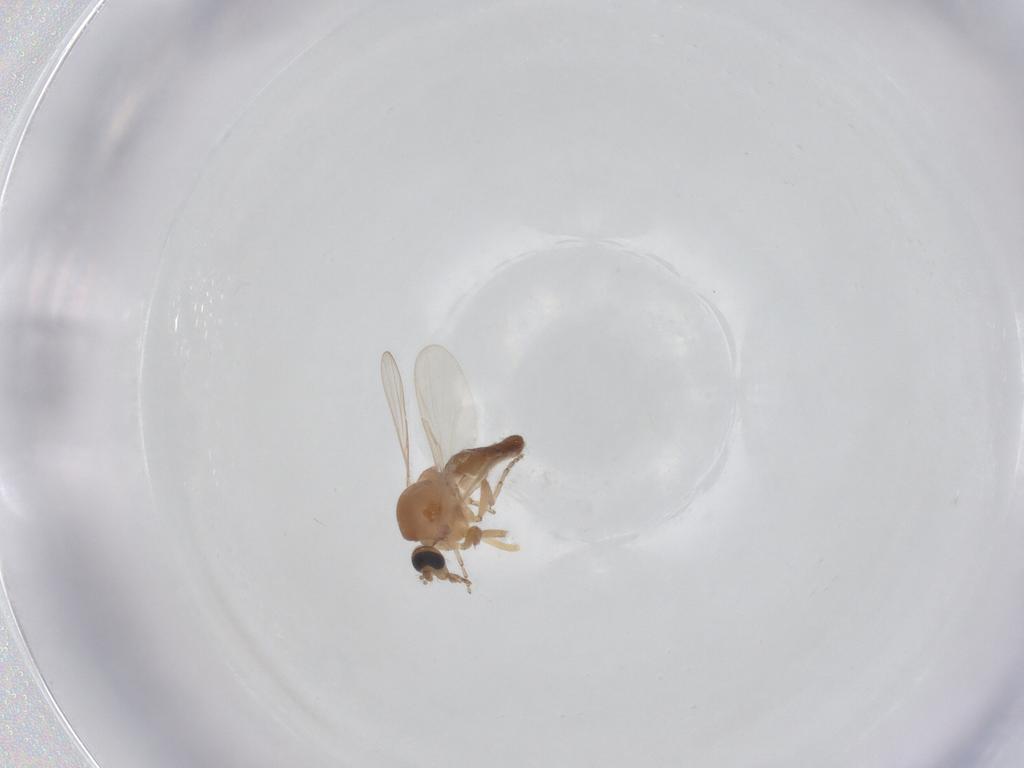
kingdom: Animalia
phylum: Arthropoda
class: Insecta
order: Diptera
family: Ceratopogonidae
